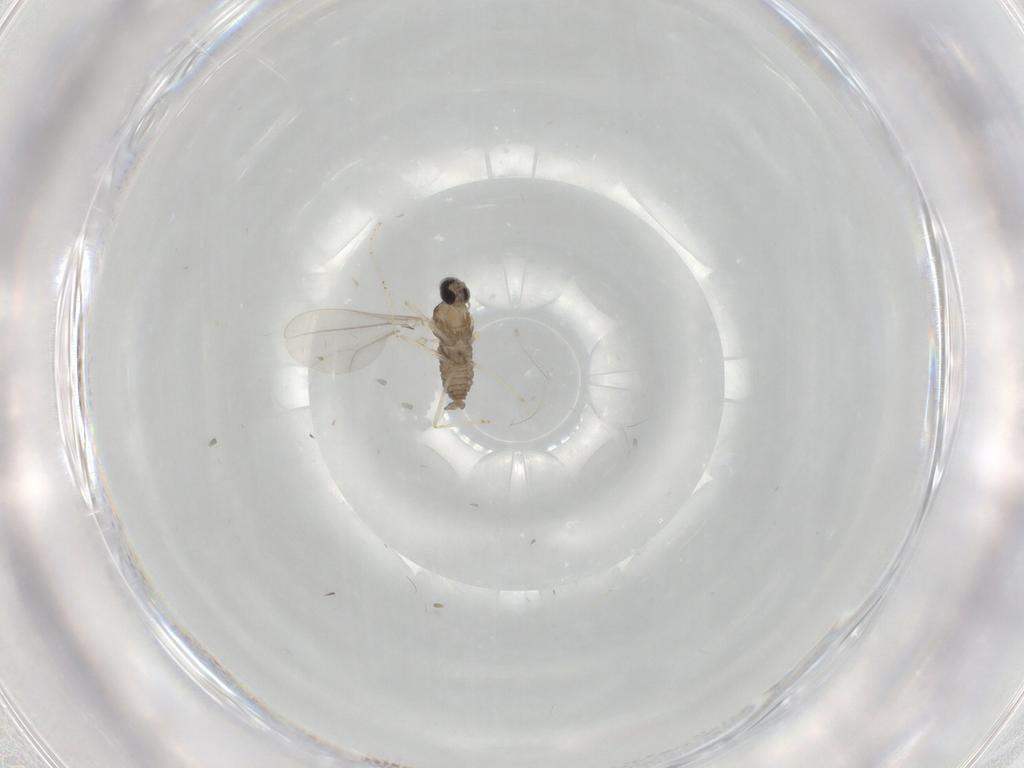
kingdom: Animalia
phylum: Arthropoda
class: Insecta
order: Diptera
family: Cecidomyiidae
